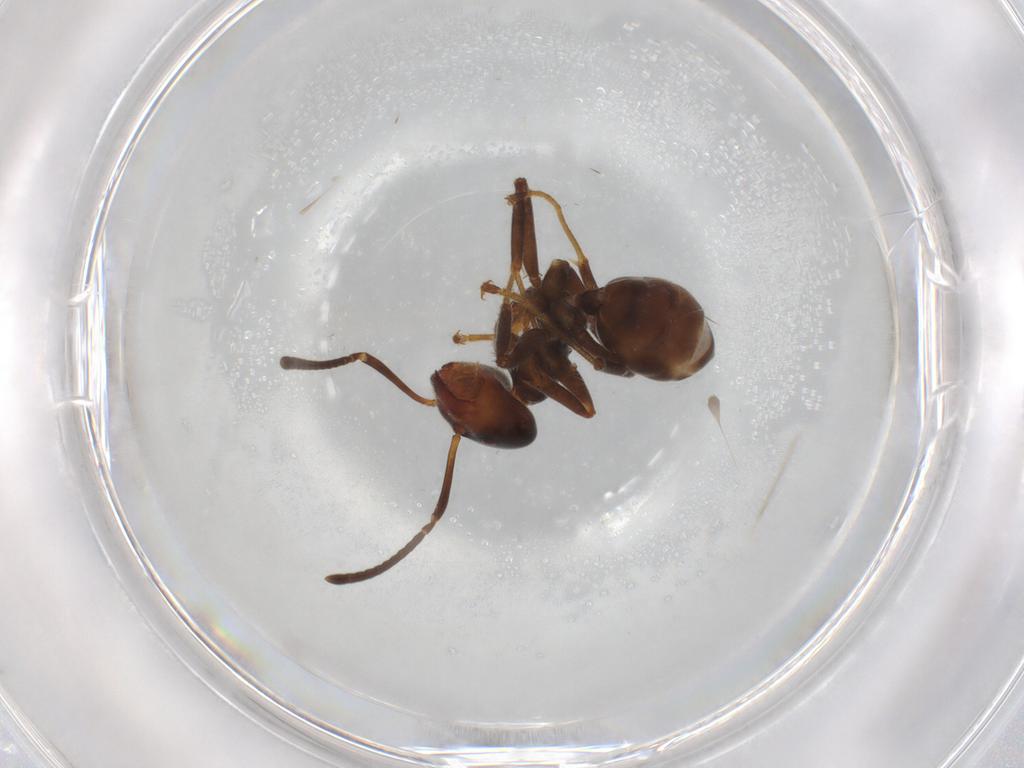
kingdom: Animalia
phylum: Arthropoda
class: Insecta
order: Hymenoptera
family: Formicidae
